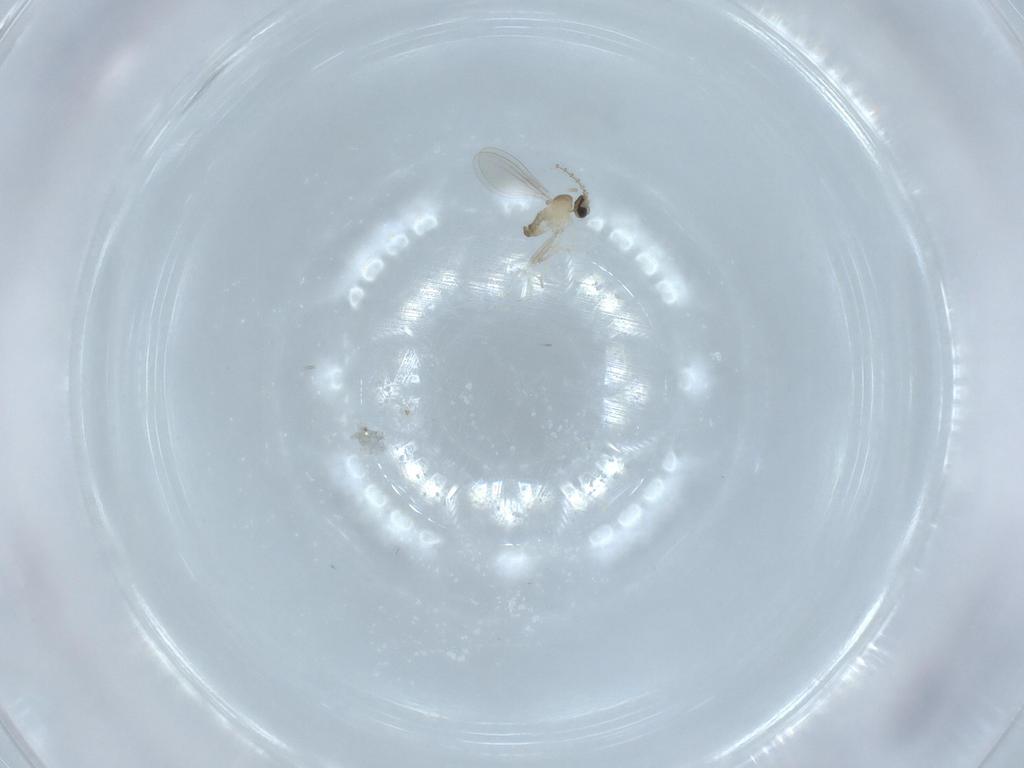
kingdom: Animalia
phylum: Arthropoda
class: Insecta
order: Diptera
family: Cecidomyiidae
